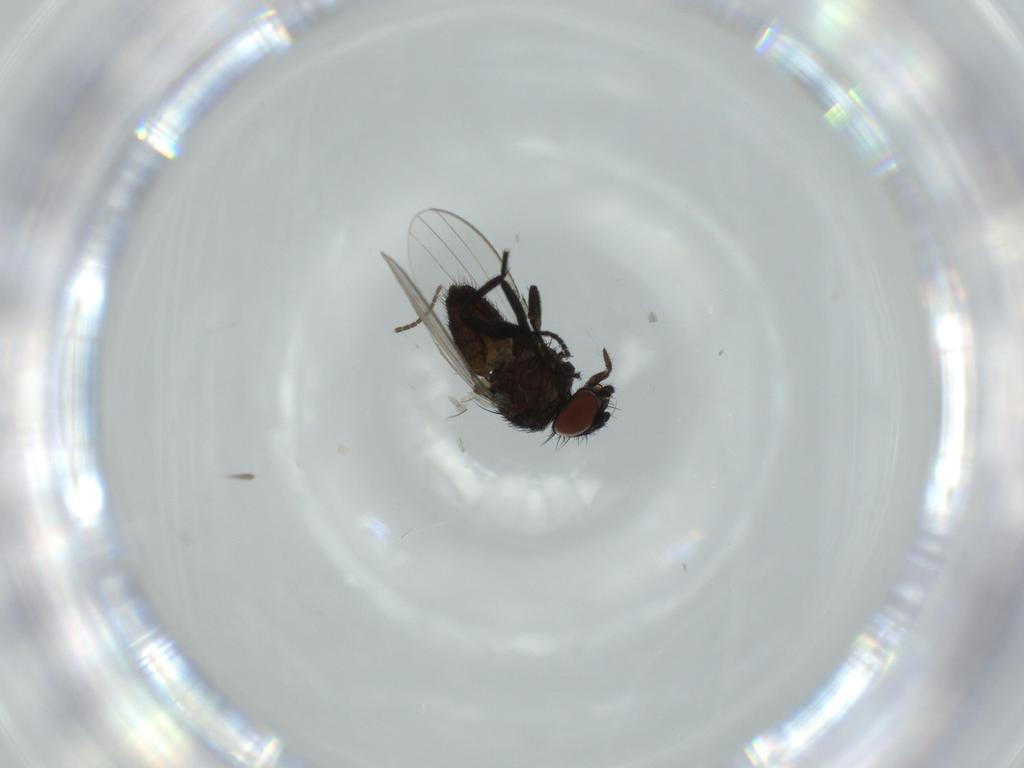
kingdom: Animalia
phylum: Arthropoda
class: Insecta
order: Diptera
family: Milichiidae
